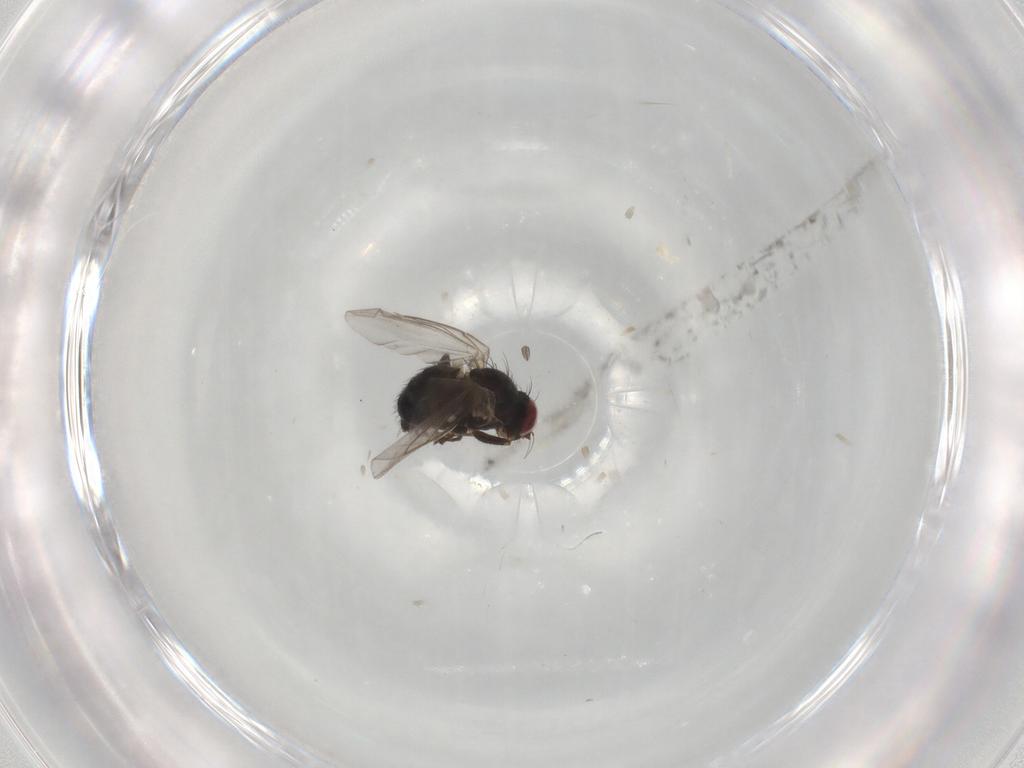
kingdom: Animalia
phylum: Arthropoda
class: Insecta
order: Diptera
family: Agromyzidae
